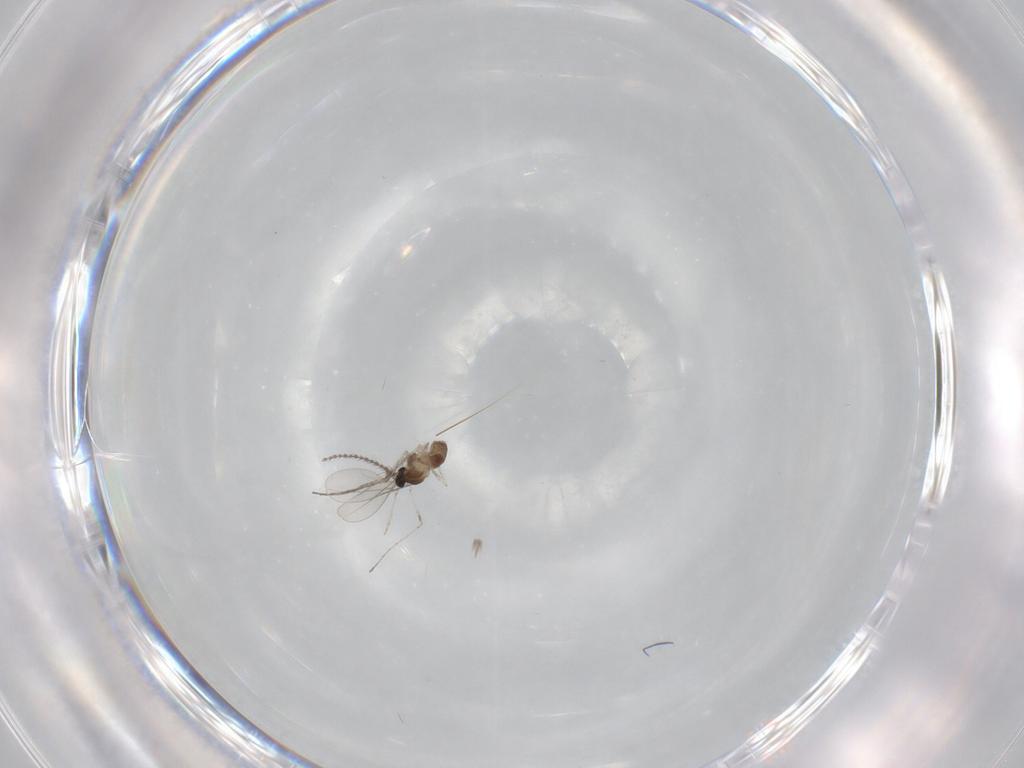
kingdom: Animalia
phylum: Arthropoda
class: Insecta
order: Diptera
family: Cecidomyiidae
